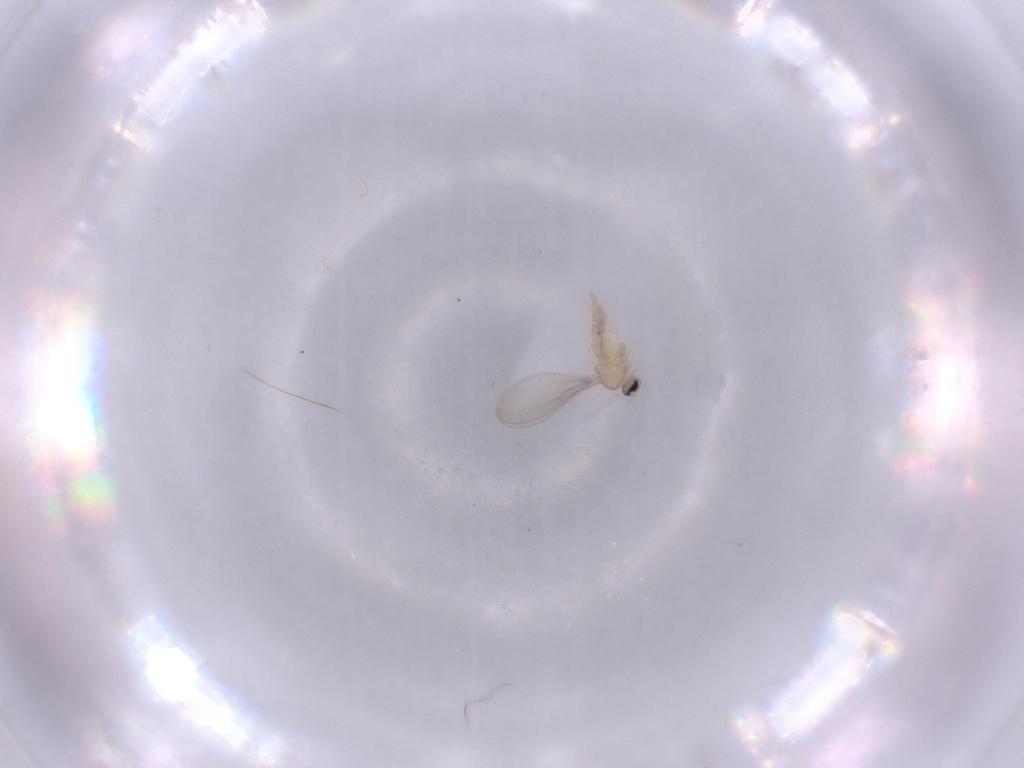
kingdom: Animalia
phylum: Arthropoda
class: Insecta
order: Diptera
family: Cecidomyiidae
